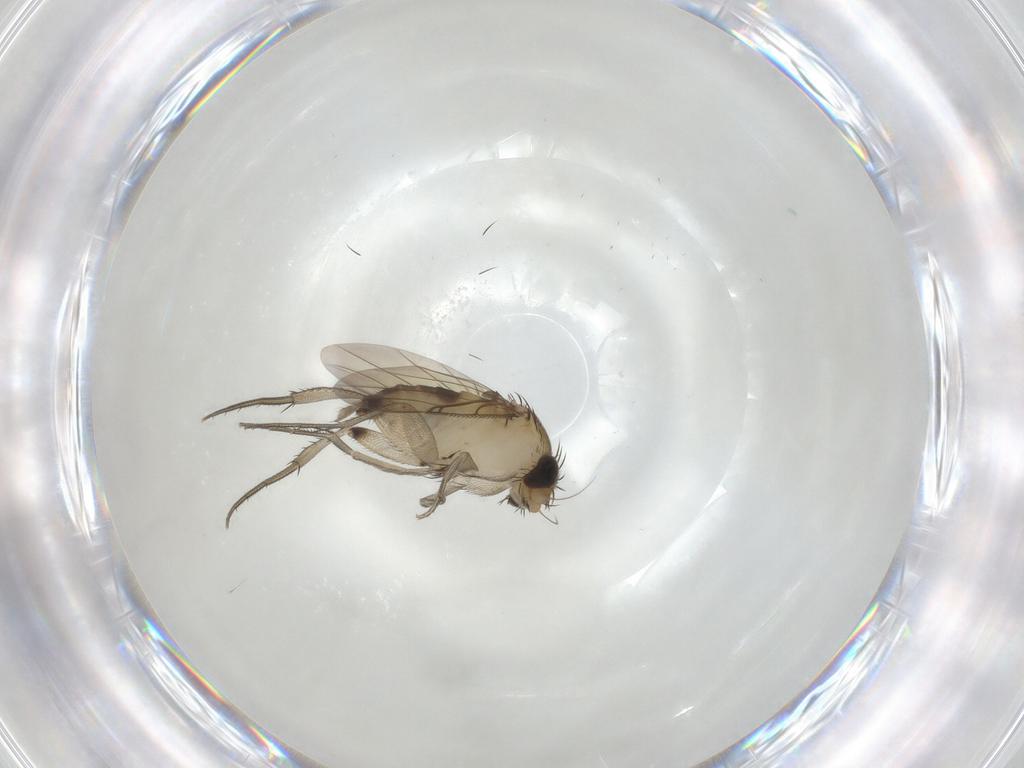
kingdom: Animalia
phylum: Arthropoda
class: Insecta
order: Diptera
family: Phoridae
